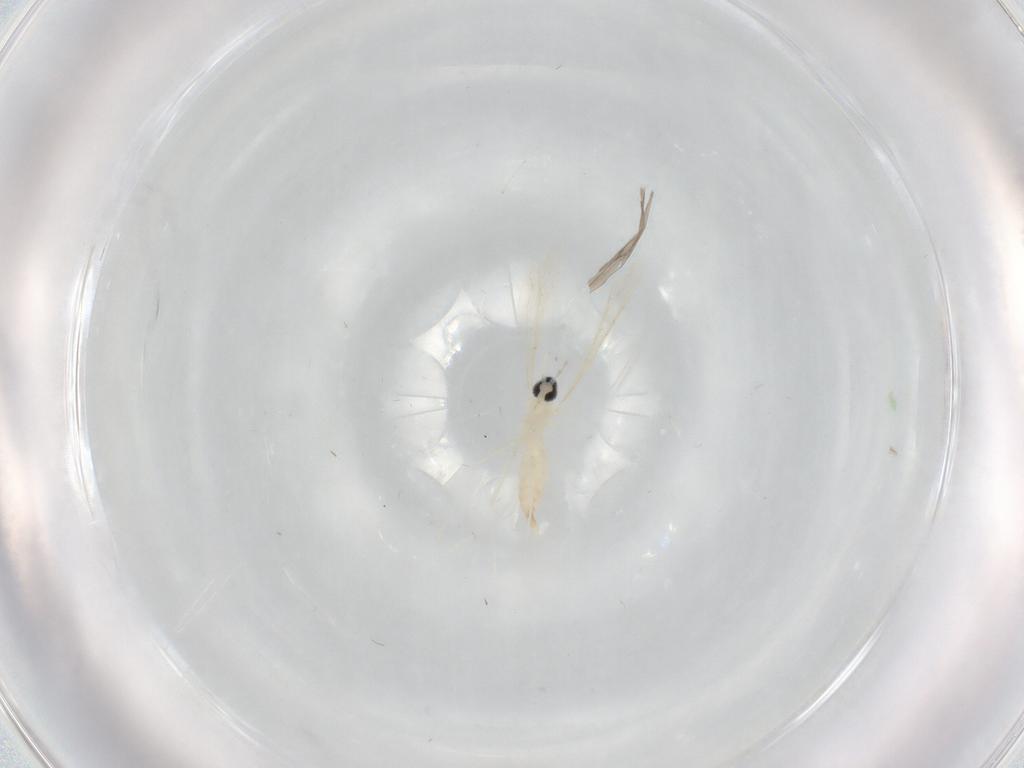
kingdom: Animalia
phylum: Arthropoda
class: Insecta
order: Diptera
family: Cecidomyiidae
